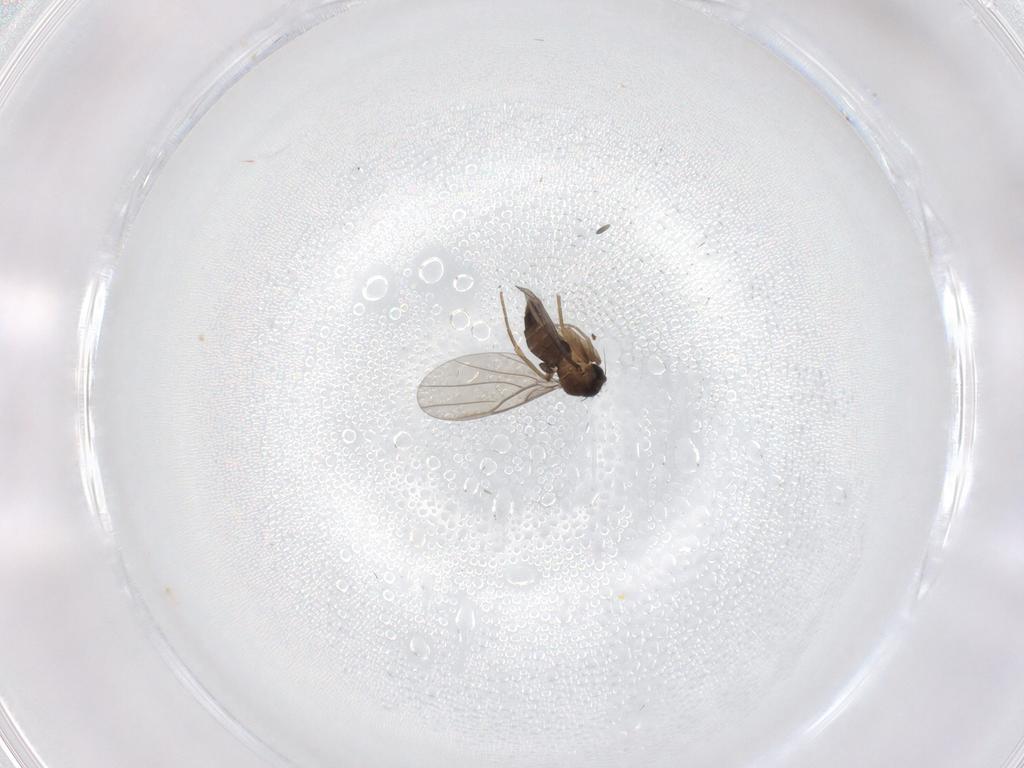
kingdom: Animalia
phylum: Arthropoda
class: Insecta
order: Diptera
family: Phoridae
